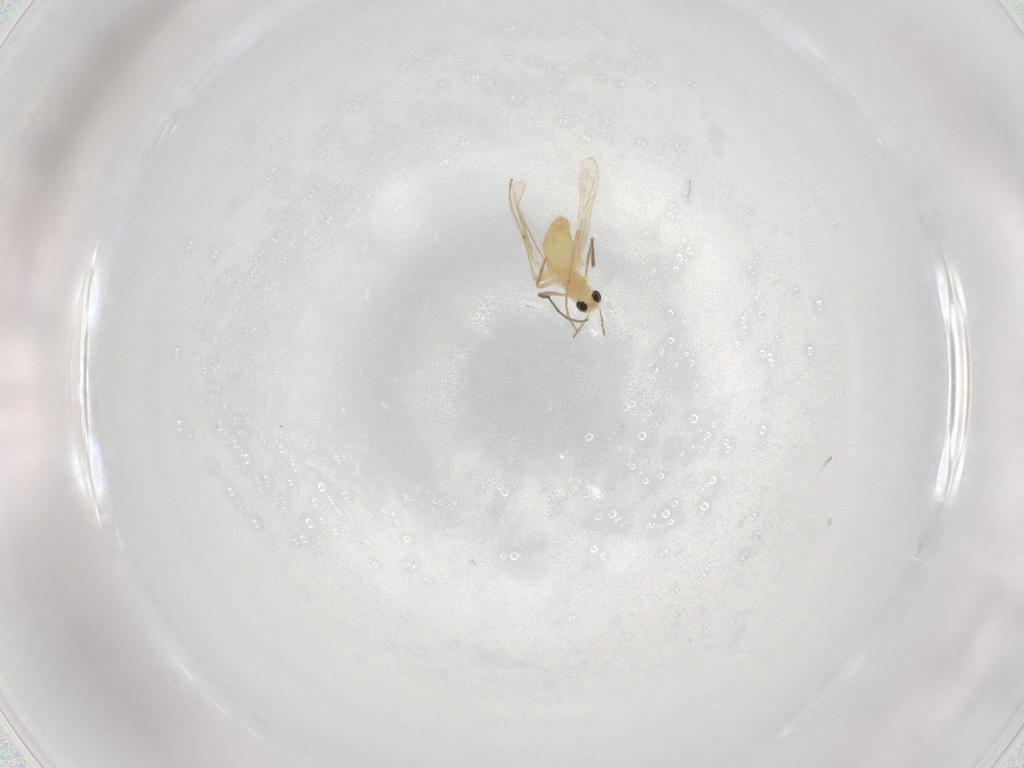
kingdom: Animalia
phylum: Arthropoda
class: Insecta
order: Diptera
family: Chironomidae
